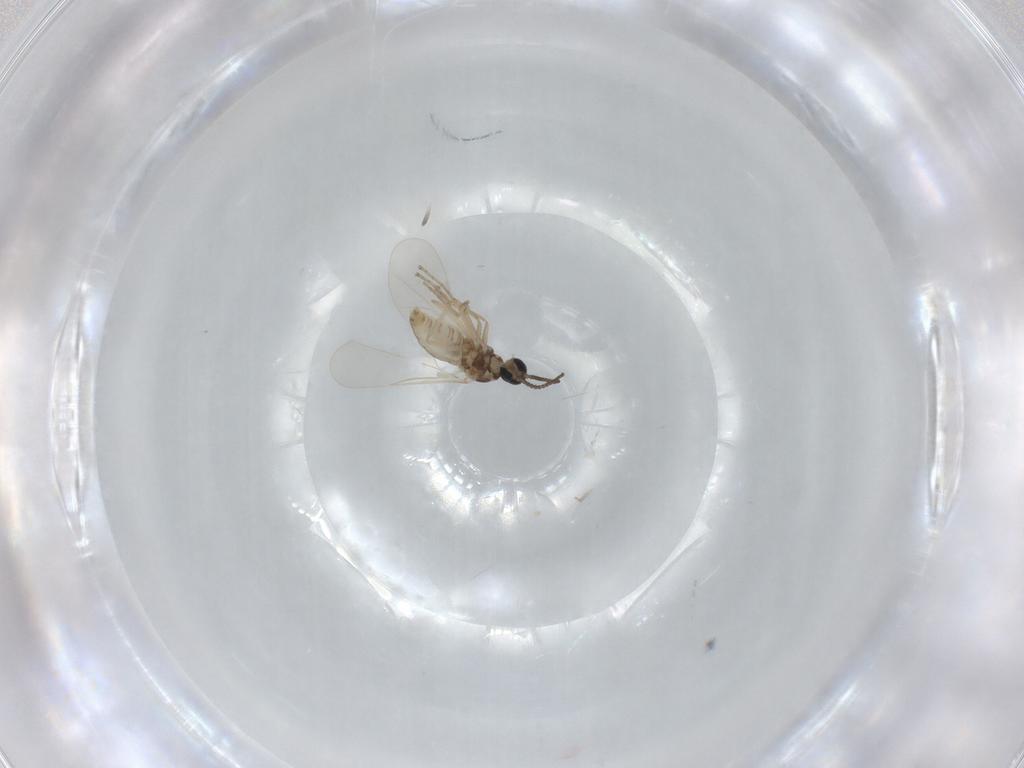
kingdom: Animalia
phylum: Arthropoda
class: Insecta
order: Diptera
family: Cecidomyiidae
